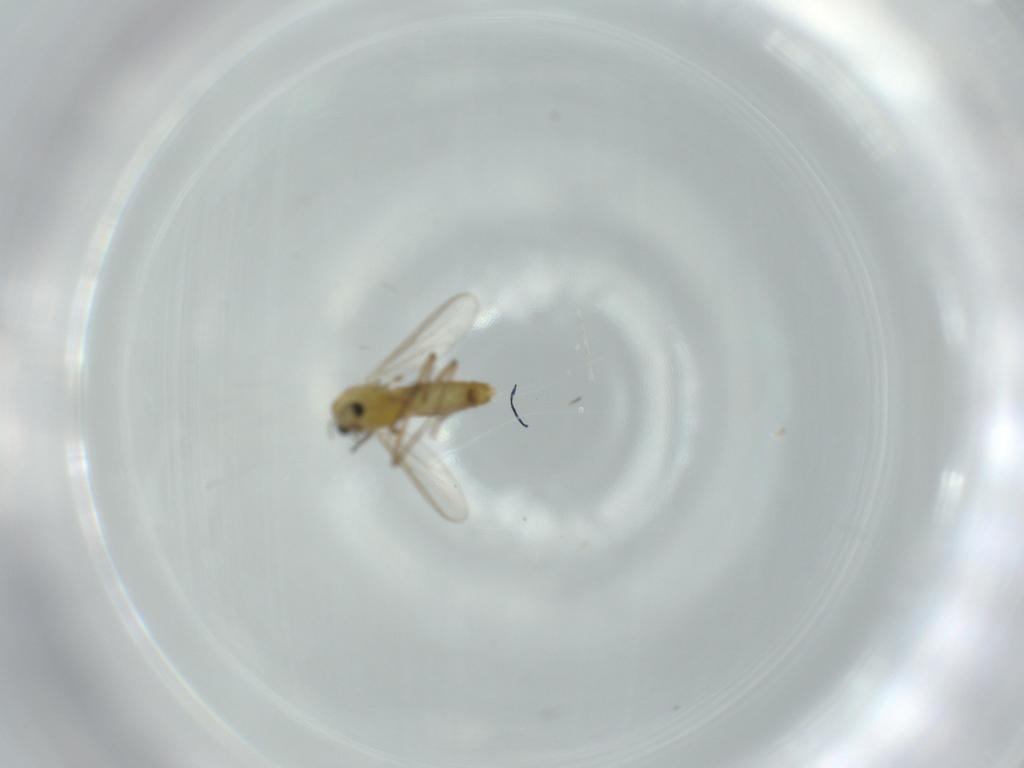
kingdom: Animalia
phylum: Arthropoda
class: Insecta
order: Diptera
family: Chironomidae
